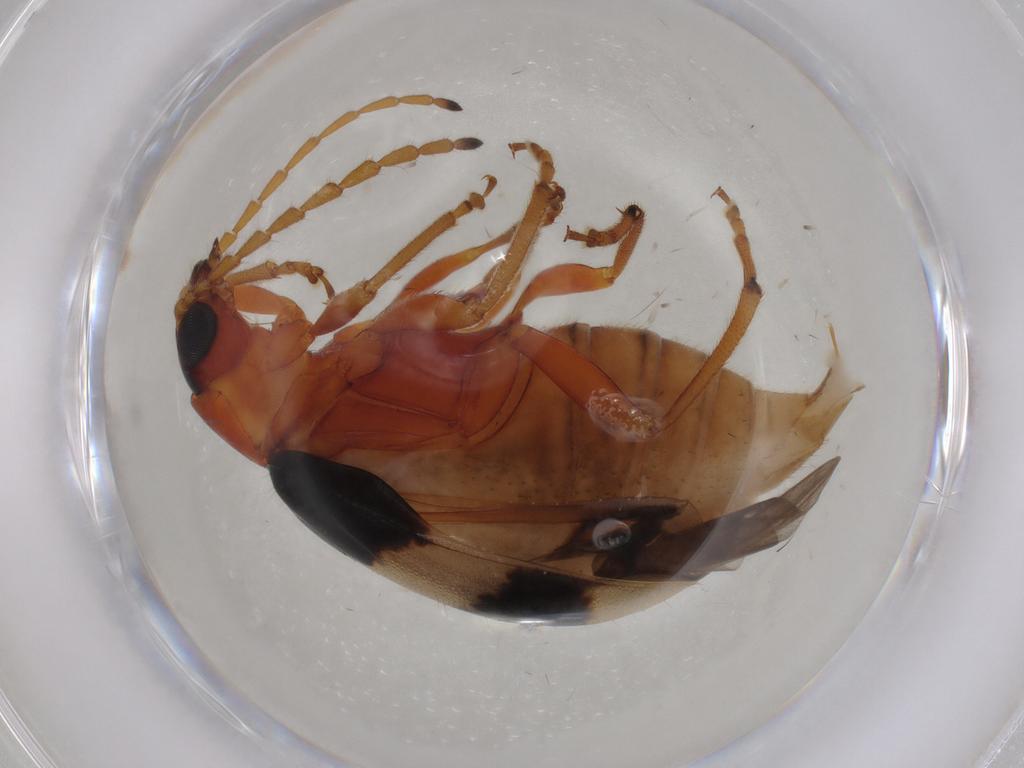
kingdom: Animalia
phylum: Arthropoda
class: Insecta
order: Coleoptera
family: Chrysomelidae
